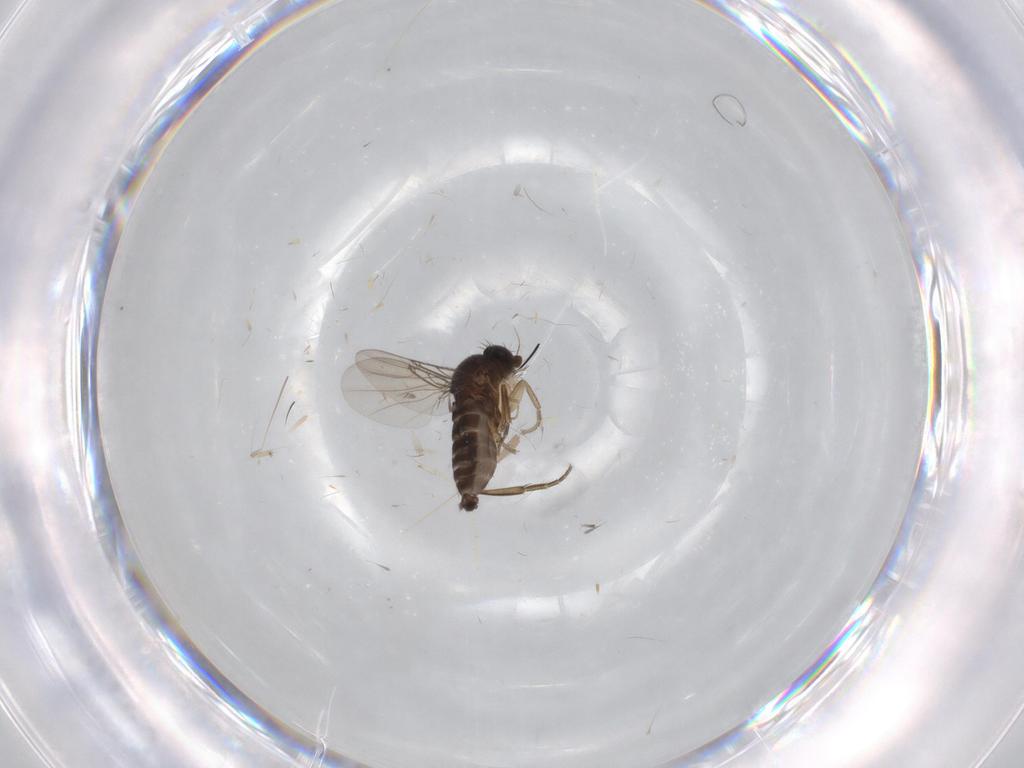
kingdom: Animalia
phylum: Arthropoda
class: Insecta
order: Diptera
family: Phoridae
